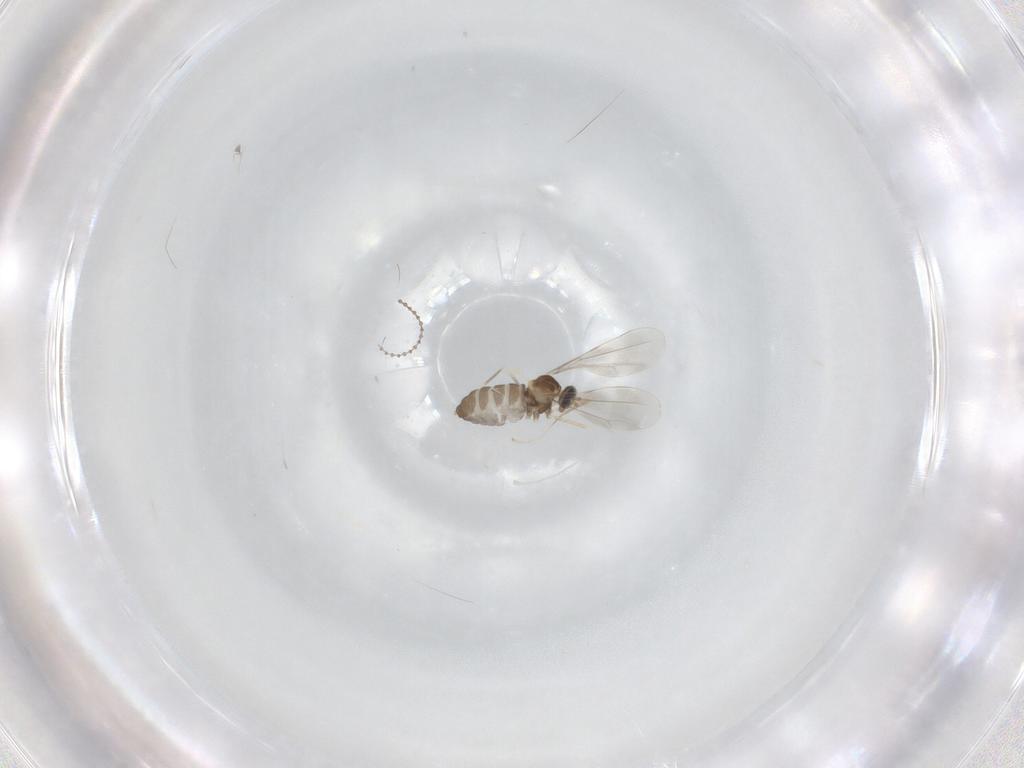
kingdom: Animalia
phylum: Arthropoda
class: Insecta
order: Diptera
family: Cecidomyiidae
